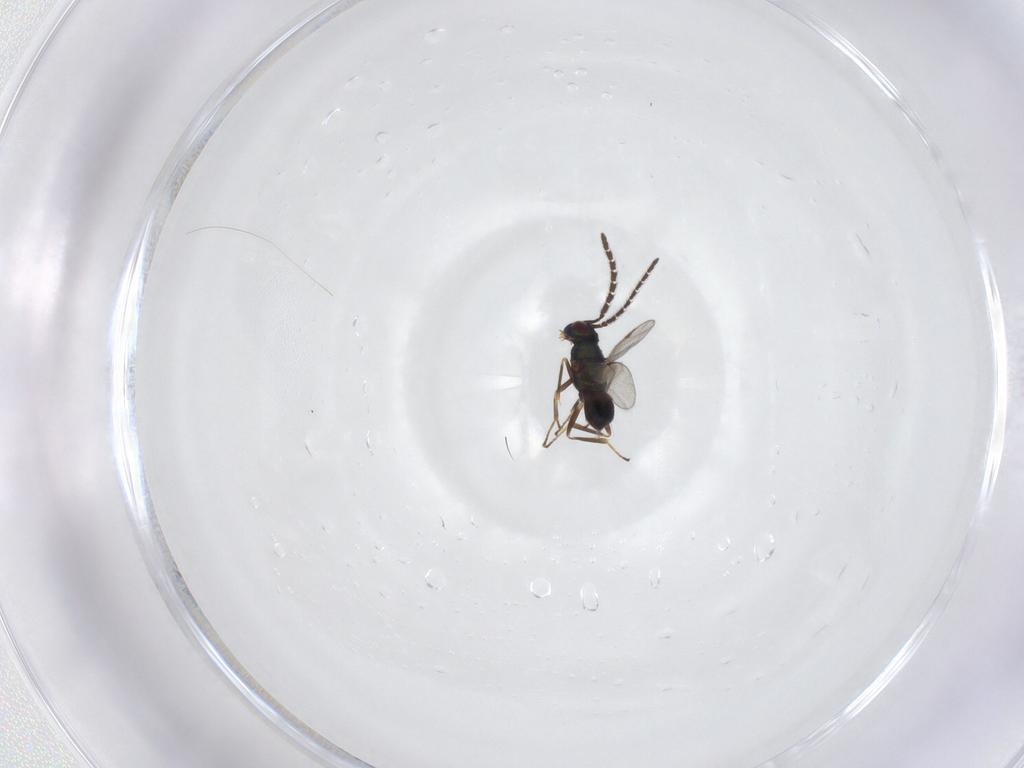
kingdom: Animalia
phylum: Arthropoda
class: Insecta
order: Hymenoptera
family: Encyrtidae
